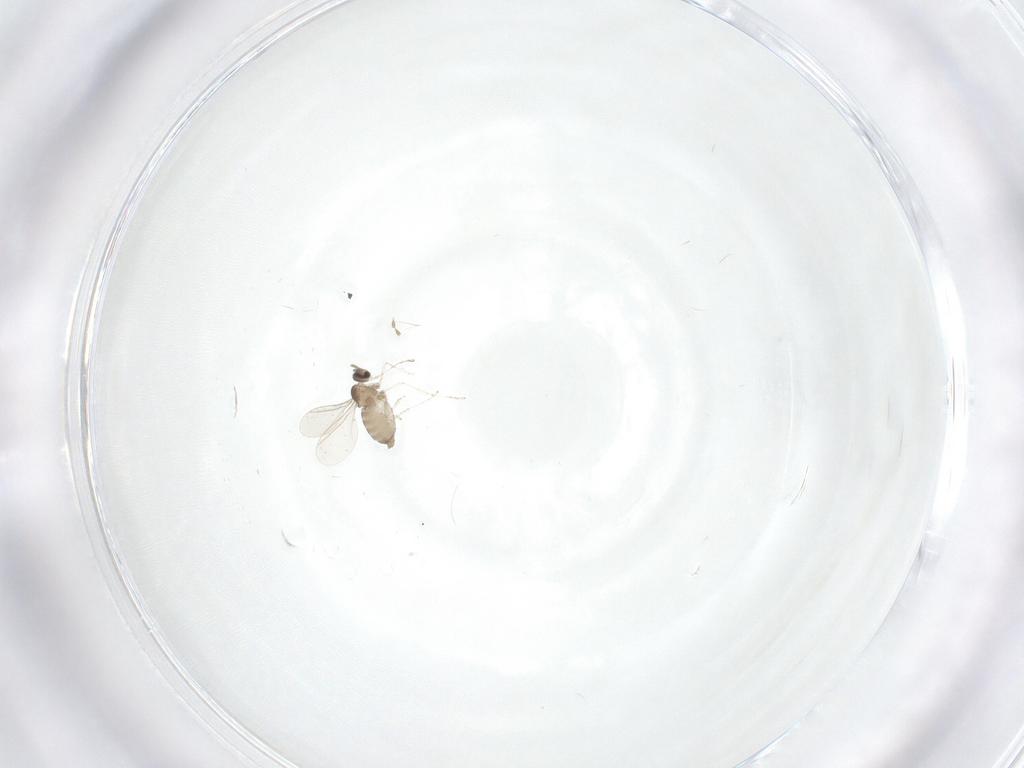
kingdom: Animalia
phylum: Arthropoda
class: Insecta
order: Diptera
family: Cecidomyiidae
